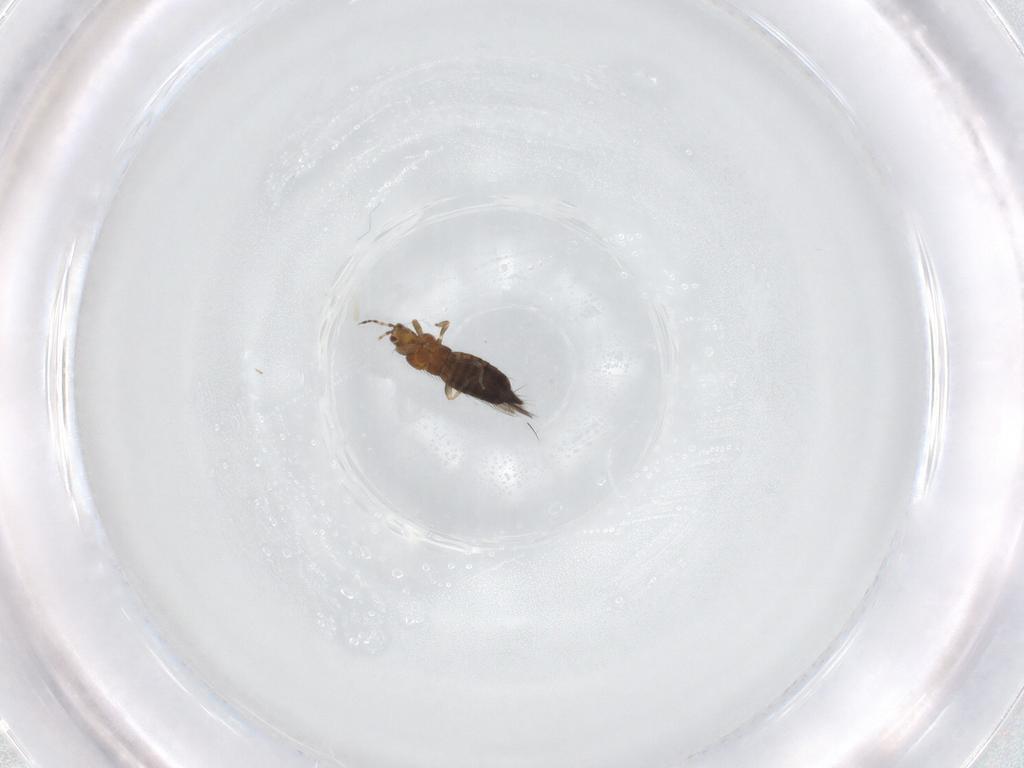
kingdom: Animalia
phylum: Arthropoda
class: Insecta
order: Thysanoptera
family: Thripidae
